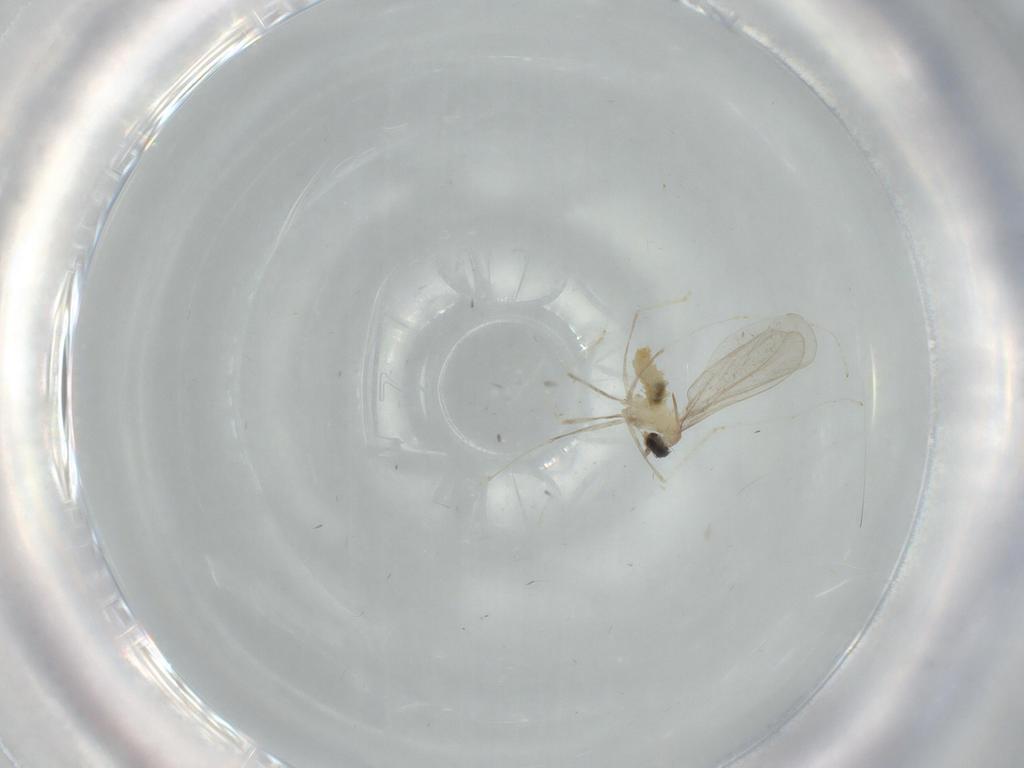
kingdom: Animalia
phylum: Arthropoda
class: Insecta
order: Diptera
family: Cecidomyiidae
